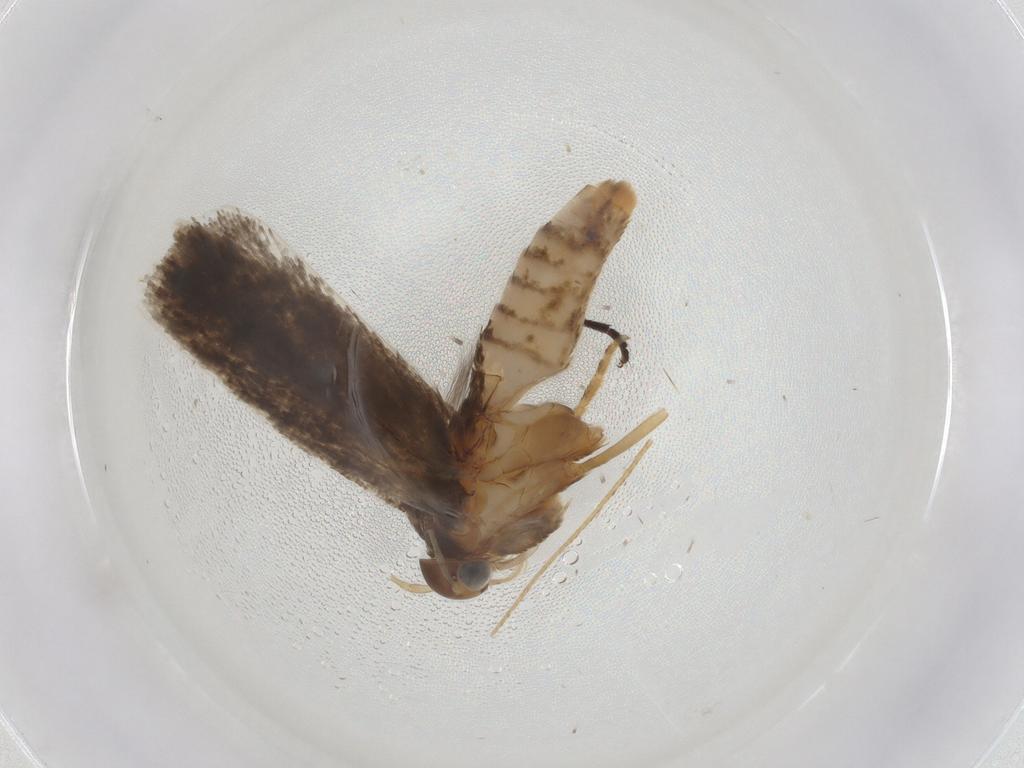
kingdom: Animalia
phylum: Arthropoda
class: Insecta
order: Lepidoptera
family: Gelechiidae
